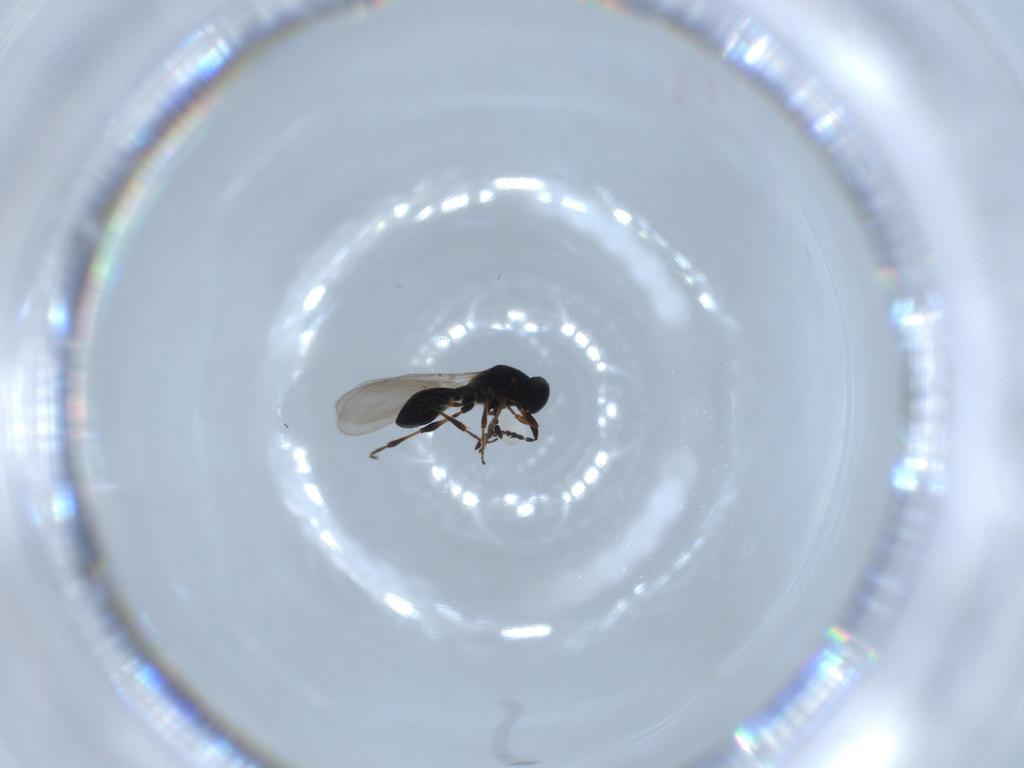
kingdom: Animalia
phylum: Arthropoda
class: Insecta
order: Hymenoptera
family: Platygastridae
